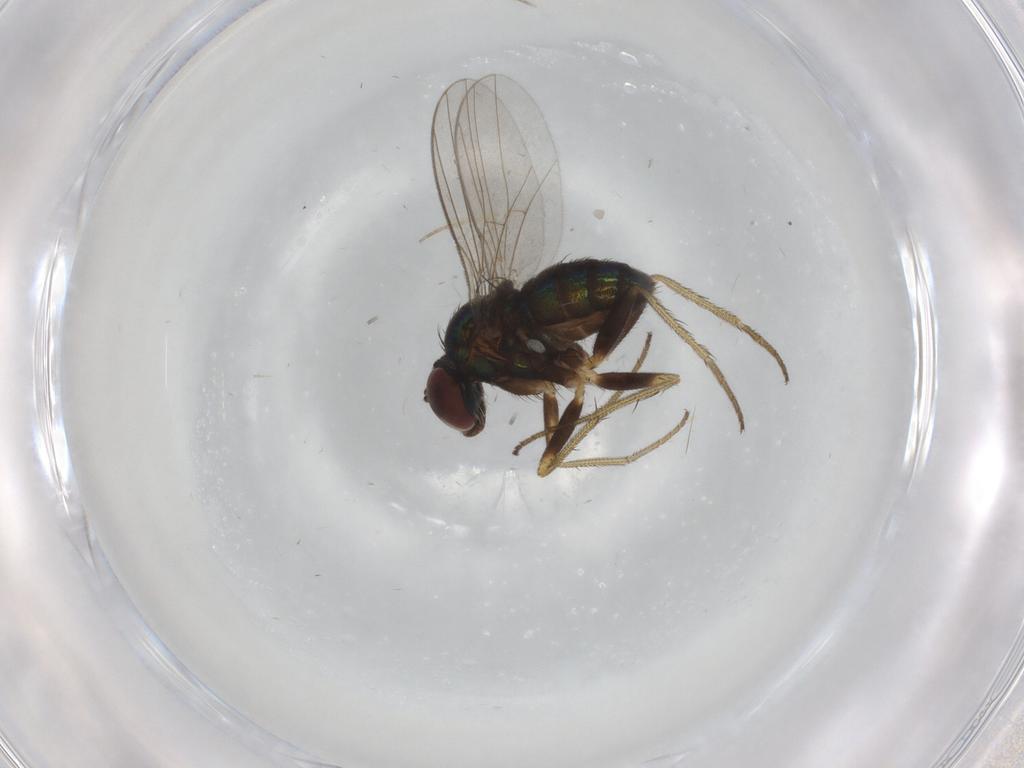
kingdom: Animalia
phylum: Arthropoda
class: Insecta
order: Diptera
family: Dolichopodidae
